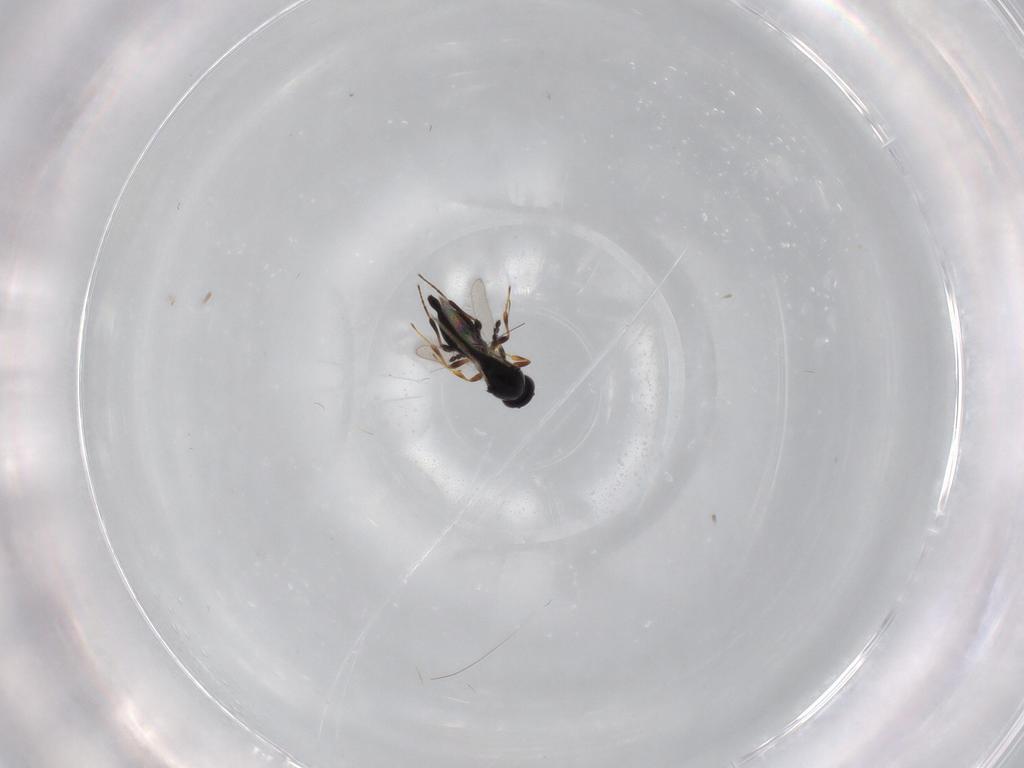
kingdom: Animalia
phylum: Arthropoda
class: Insecta
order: Hymenoptera
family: Platygastridae
